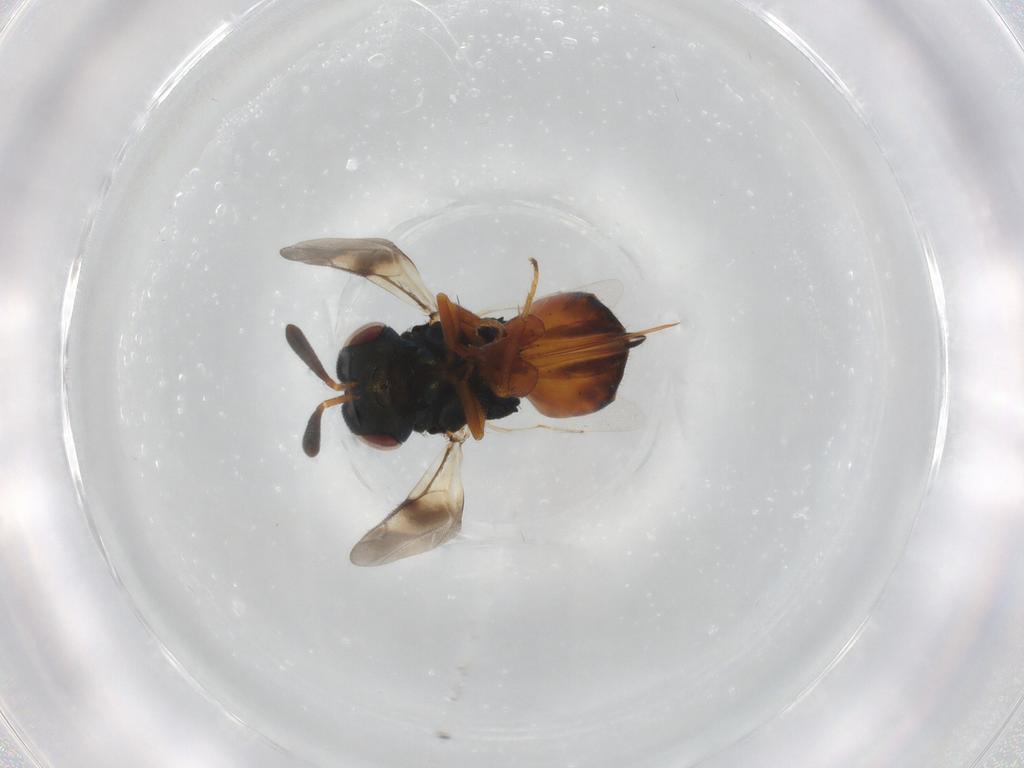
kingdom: Animalia
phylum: Arthropoda
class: Insecta
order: Hymenoptera
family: Pteromalidae
